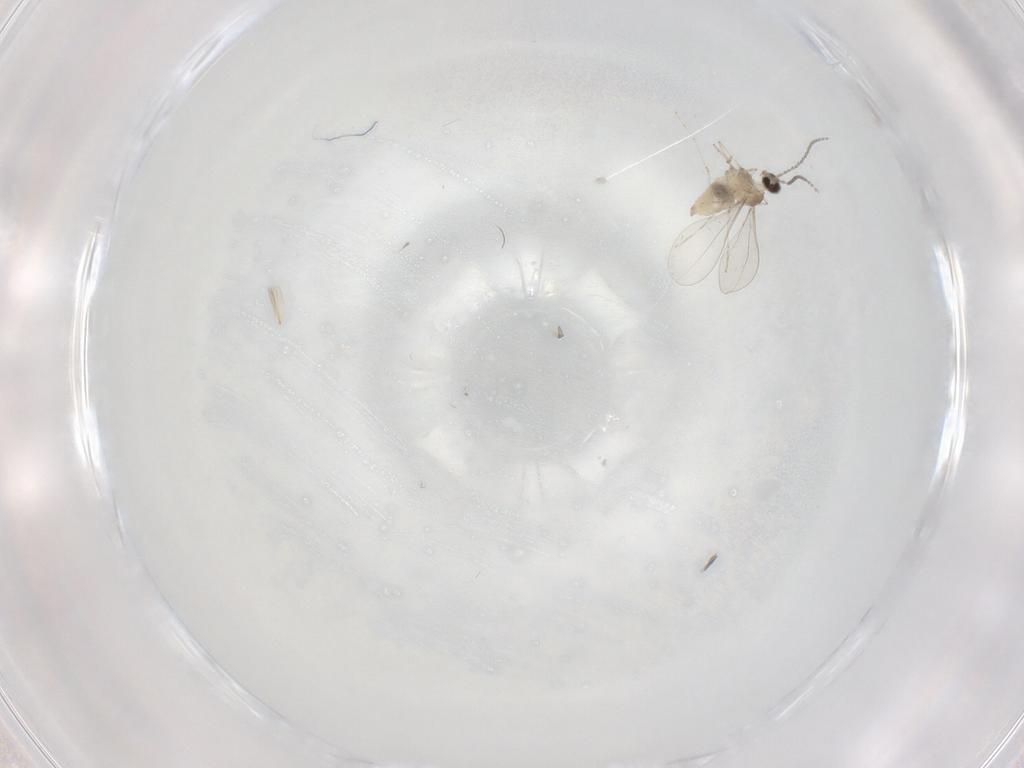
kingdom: Animalia
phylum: Arthropoda
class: Insecta
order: Diptera
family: Cecidomyiidae
